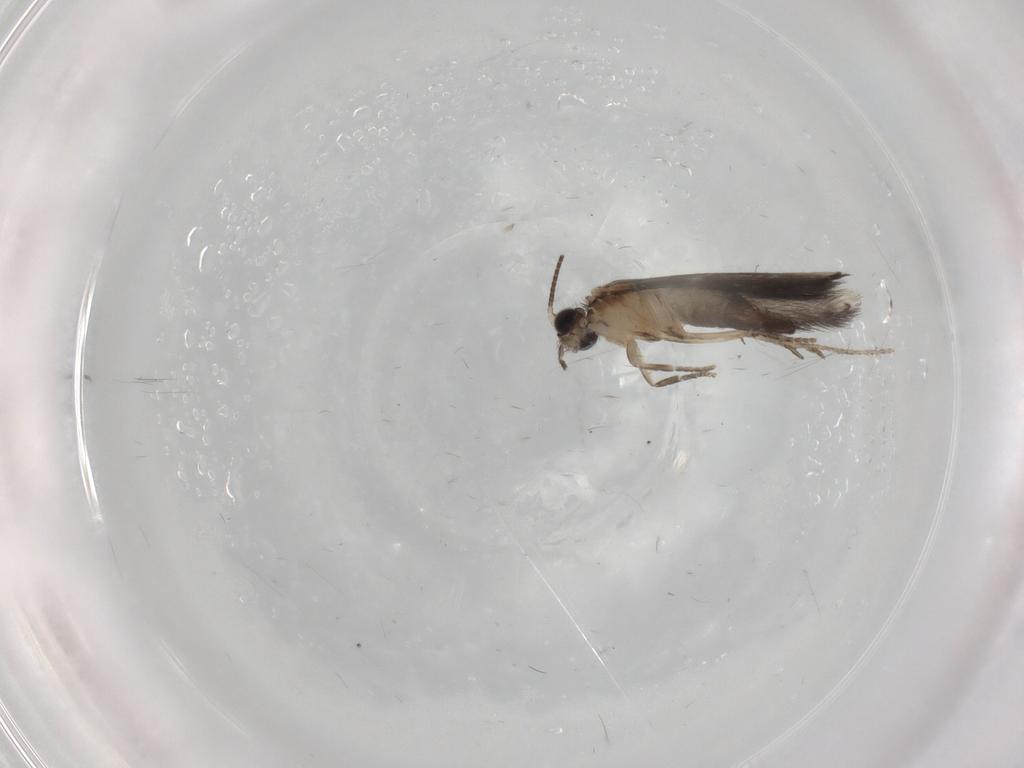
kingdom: Animalia
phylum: Arthropoda
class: Insecta
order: Trichoptera
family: Hydroptilidae
